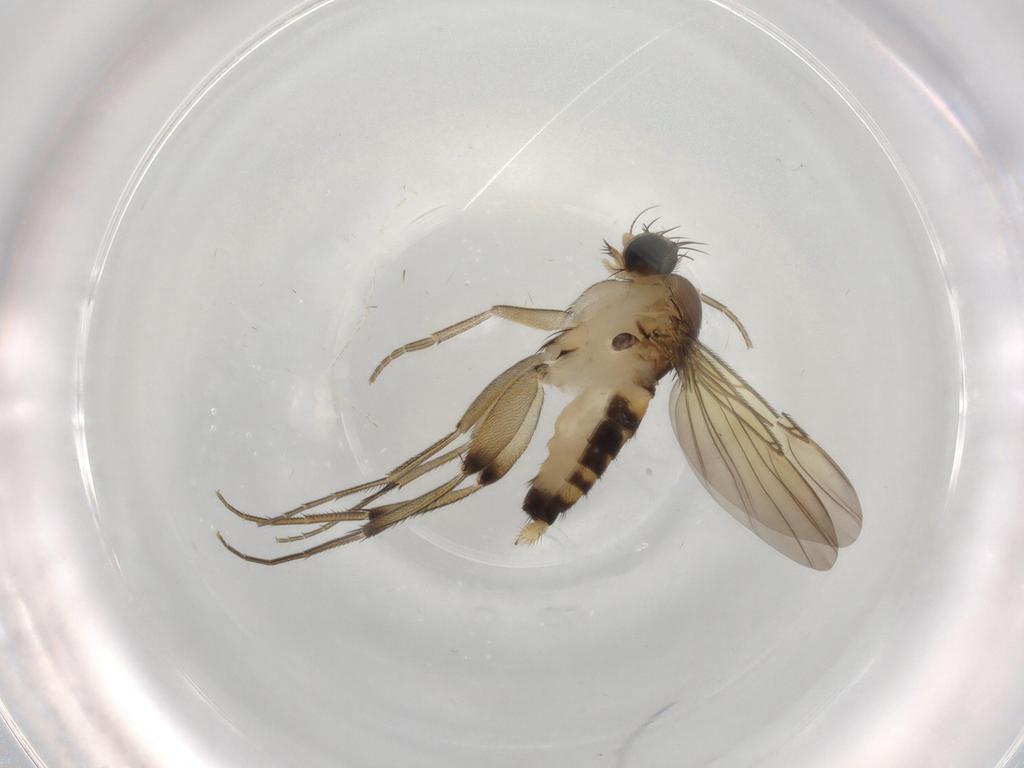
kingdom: Animalia
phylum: Arthropoda
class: Insecta
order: Diptera
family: Phoridae
